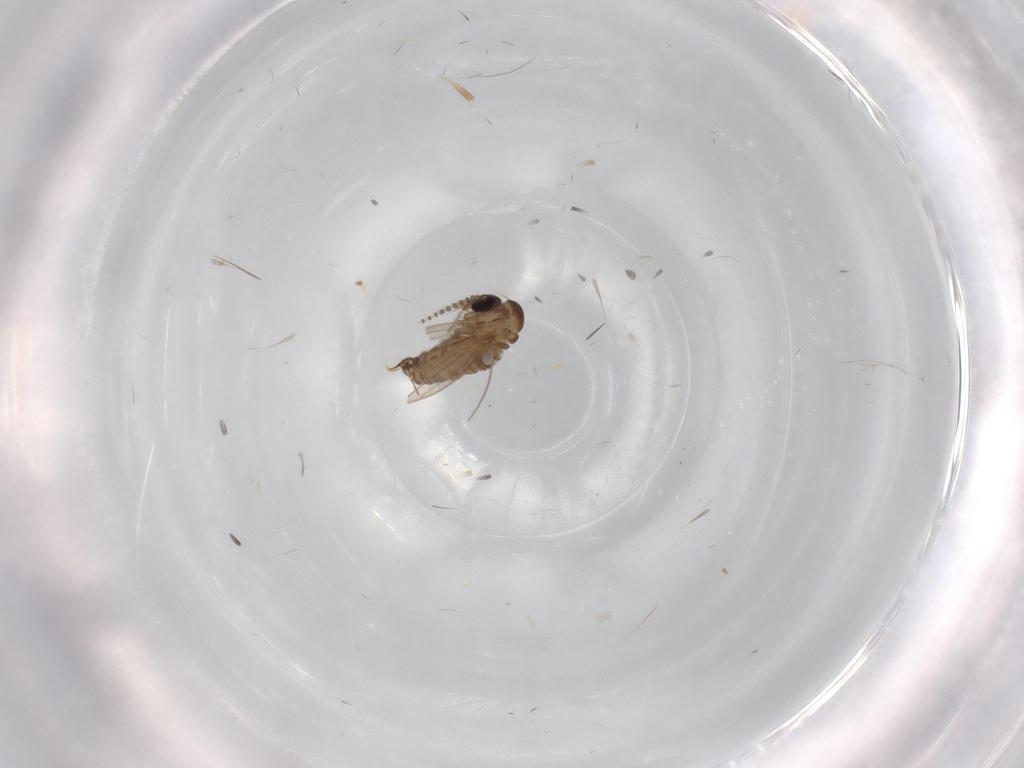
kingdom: Animalia
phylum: Arthropoda
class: Insecta
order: Diptera
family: Psychodidae
